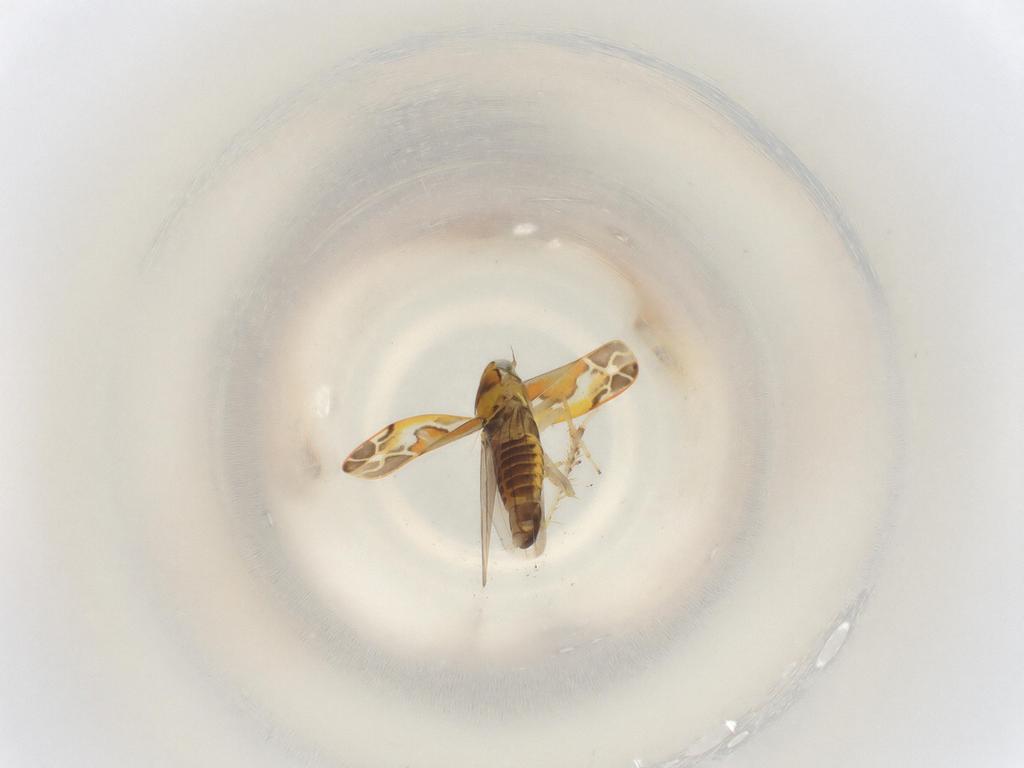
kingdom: Animalia
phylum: Arthropoda
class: Insecta
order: Hemiptera
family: Cicadellidae
